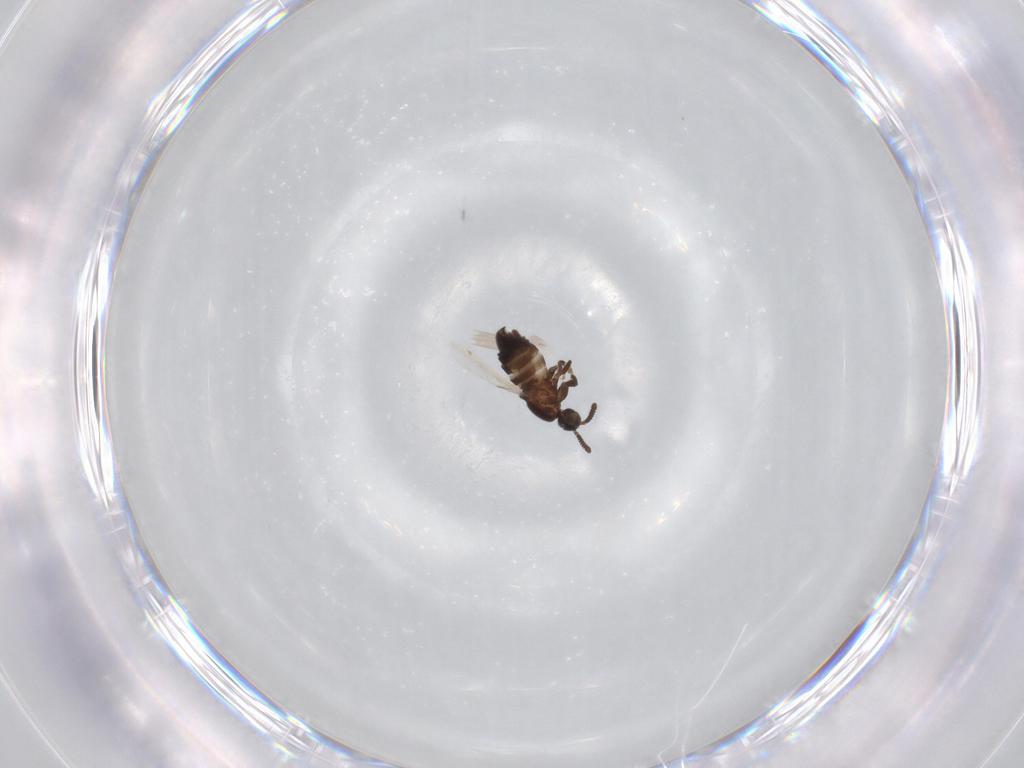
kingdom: Animalia
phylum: Arthropoda
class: Insecta
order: Diptera
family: Scatopsidae
